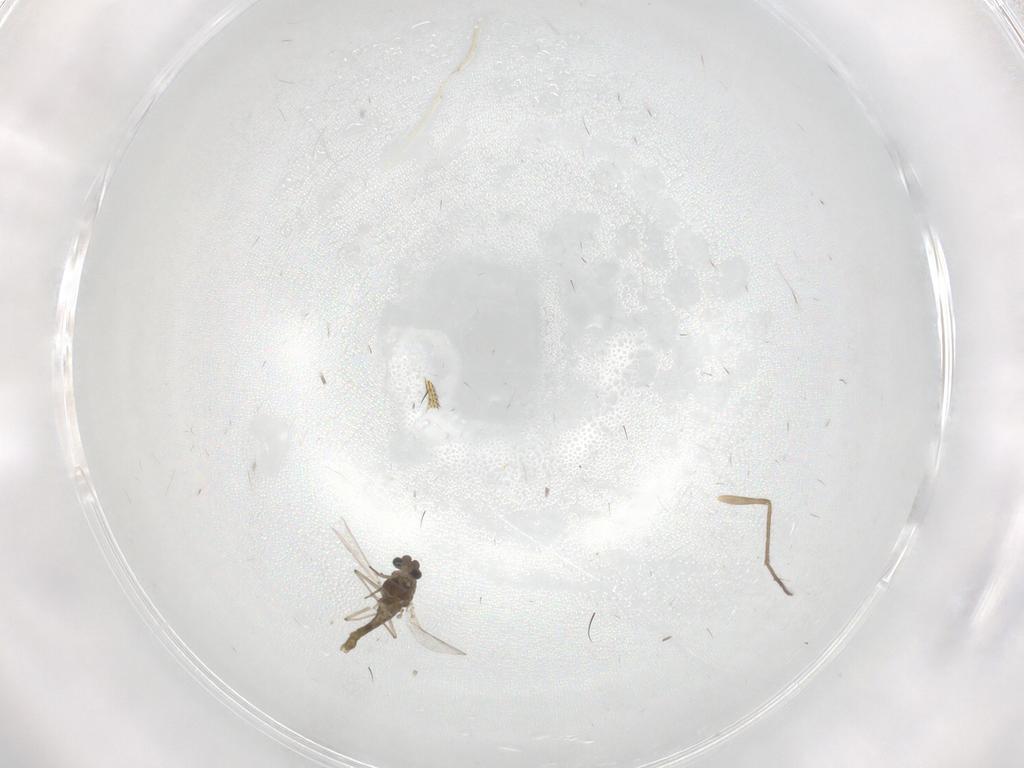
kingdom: Animalia
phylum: Arthropoda
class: Insecta
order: Diptera
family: Chironomidae
